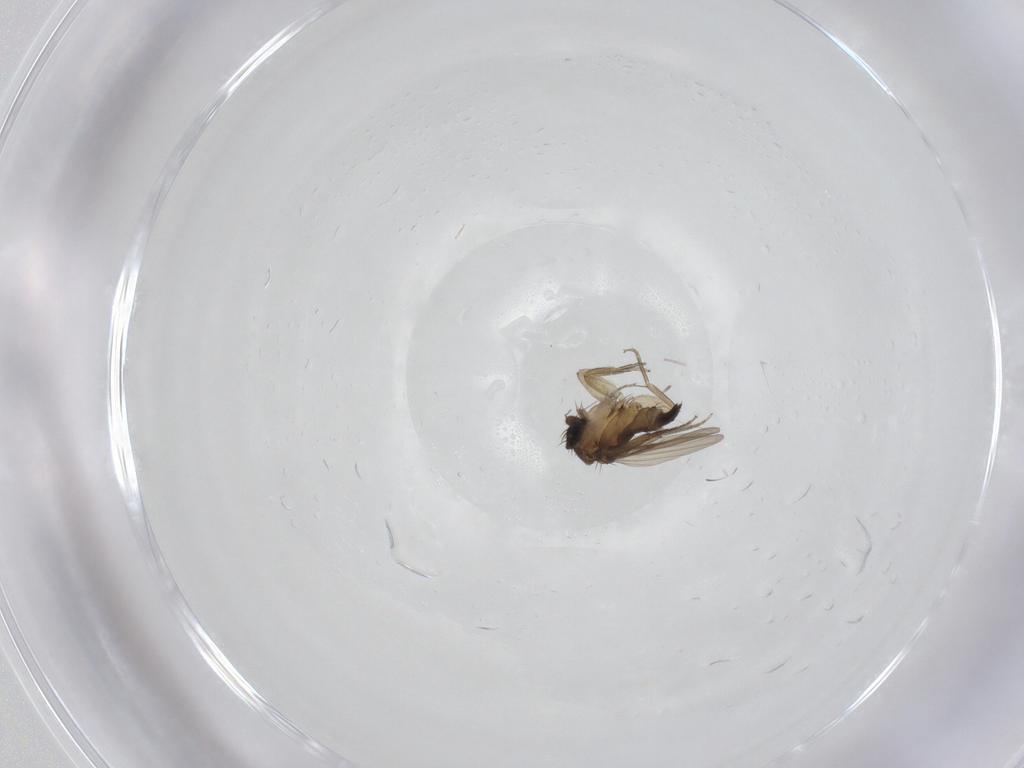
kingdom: Animalia
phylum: Arthropoda
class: Insecta
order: Diptera
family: Phoridae
